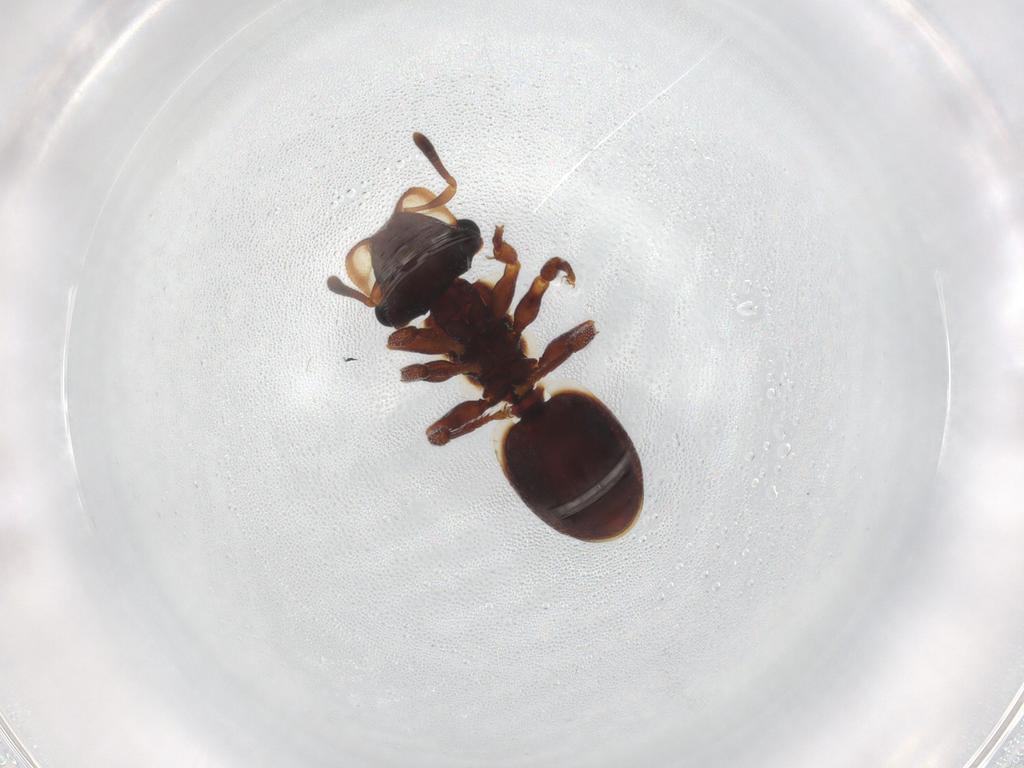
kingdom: Animalia
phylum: Arthropoda
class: Insecta
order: Hymenoptera
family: Formicidae
